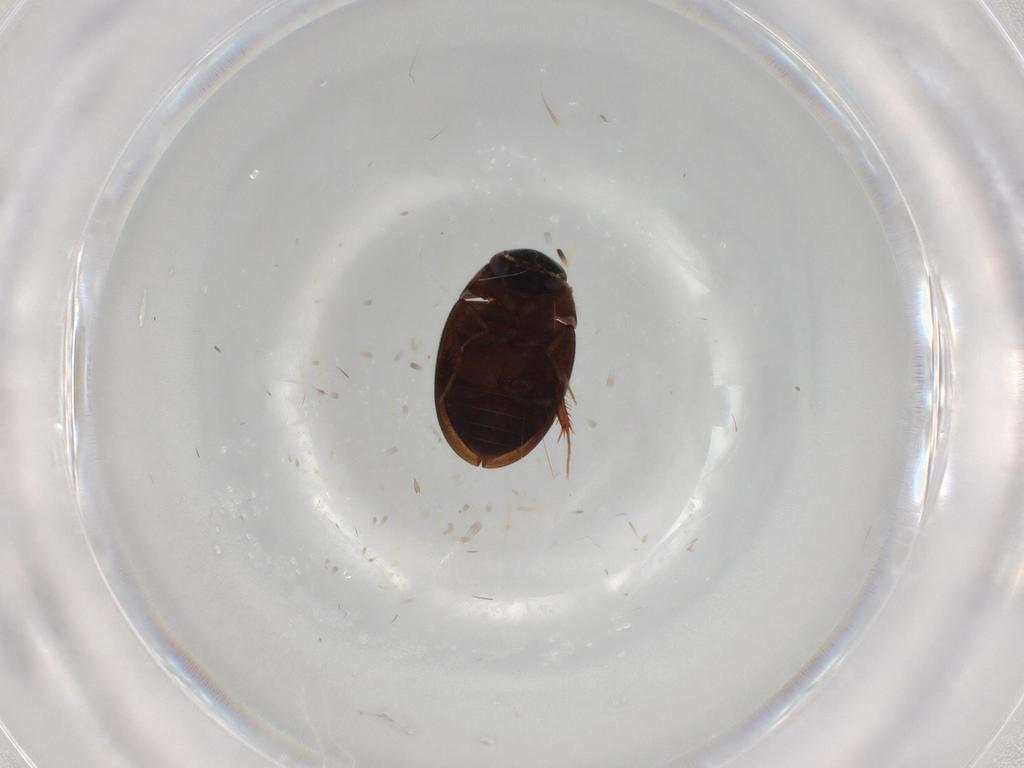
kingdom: Animalia
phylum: Arthropoda
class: Insecta
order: Coleoptera
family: Hydrophilidae
